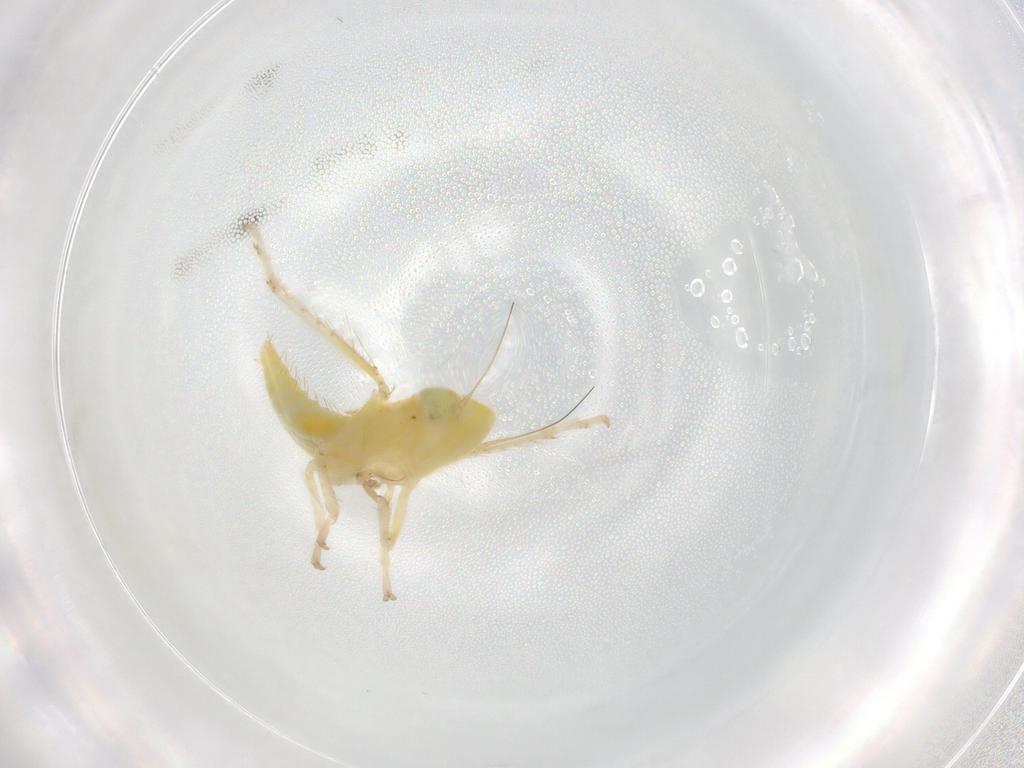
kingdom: Animalia
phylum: Arthropoda
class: Insecta
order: Hemiptera
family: Cicadellidae
